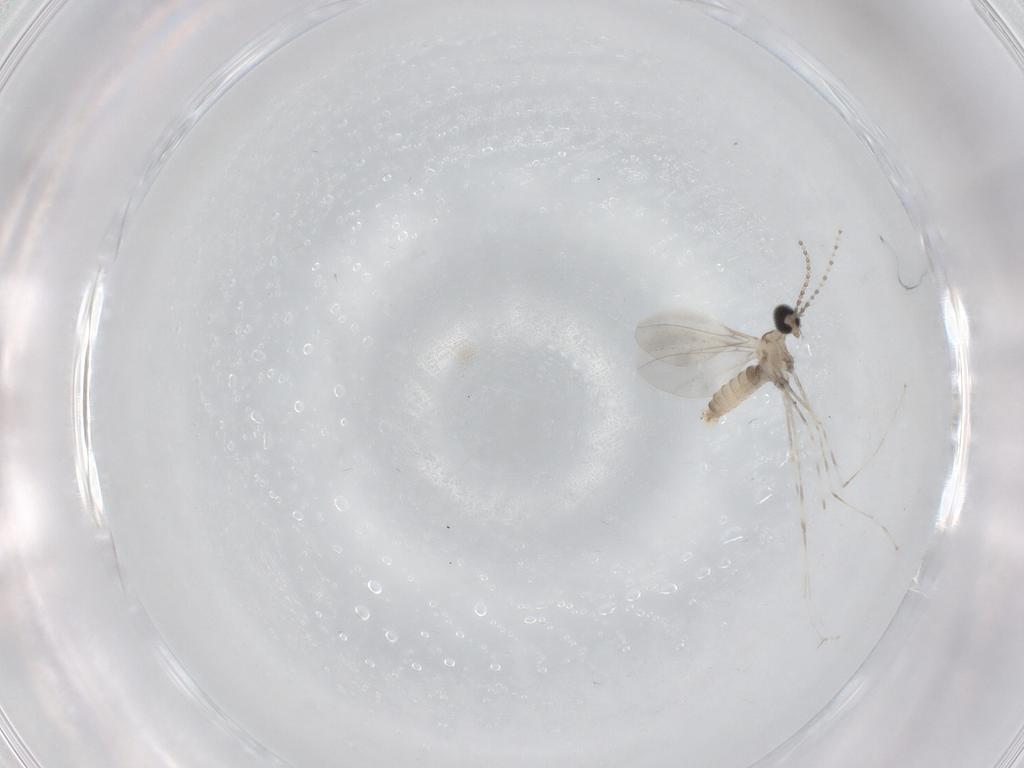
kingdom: Animalia
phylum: Arthropoda
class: Insecta
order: Diptera
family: Cecidomyiidae
